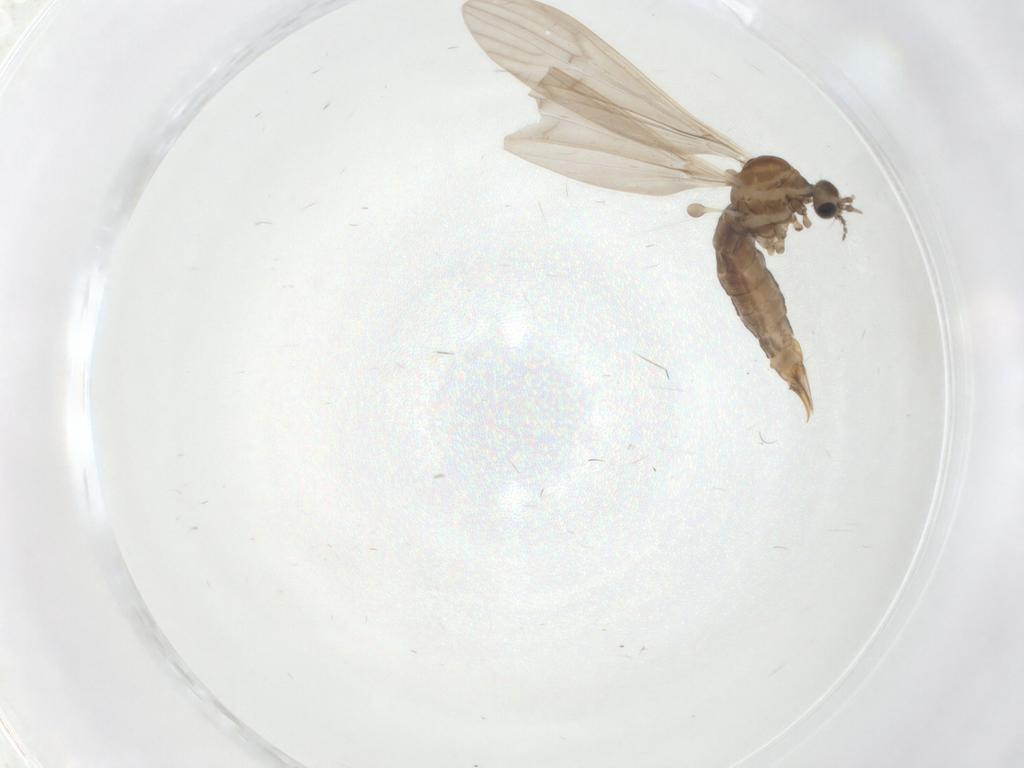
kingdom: Animalia
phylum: Arthropoda
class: Insecta
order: Diptera
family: Limoniidae
